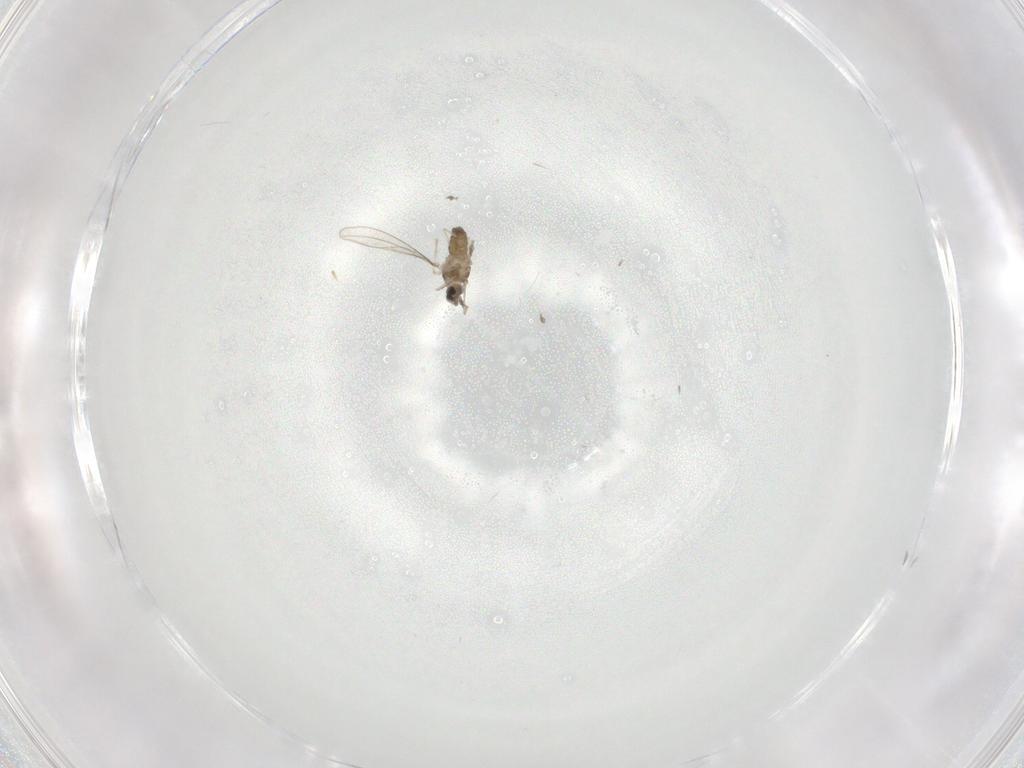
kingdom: Animalia
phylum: Arthropoda
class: Insecta
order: Diptera
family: Cecidomyiidae
